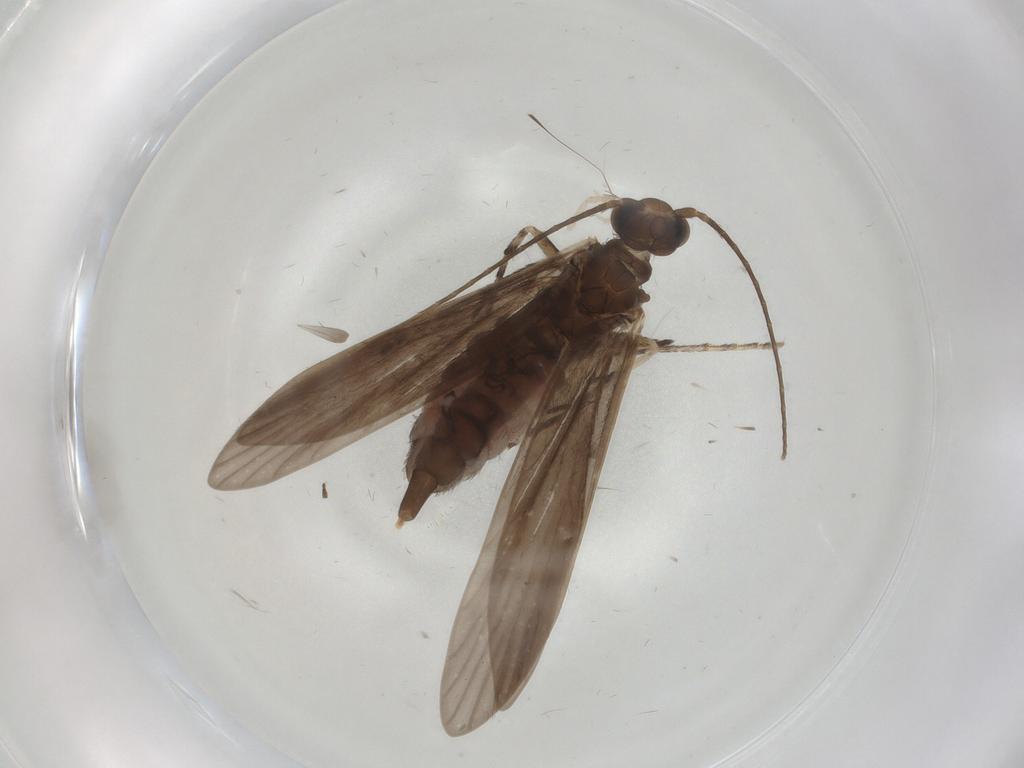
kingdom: Animalia
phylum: Arthropoda
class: Insecta
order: Trichoptera
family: Xiphocentronidae
